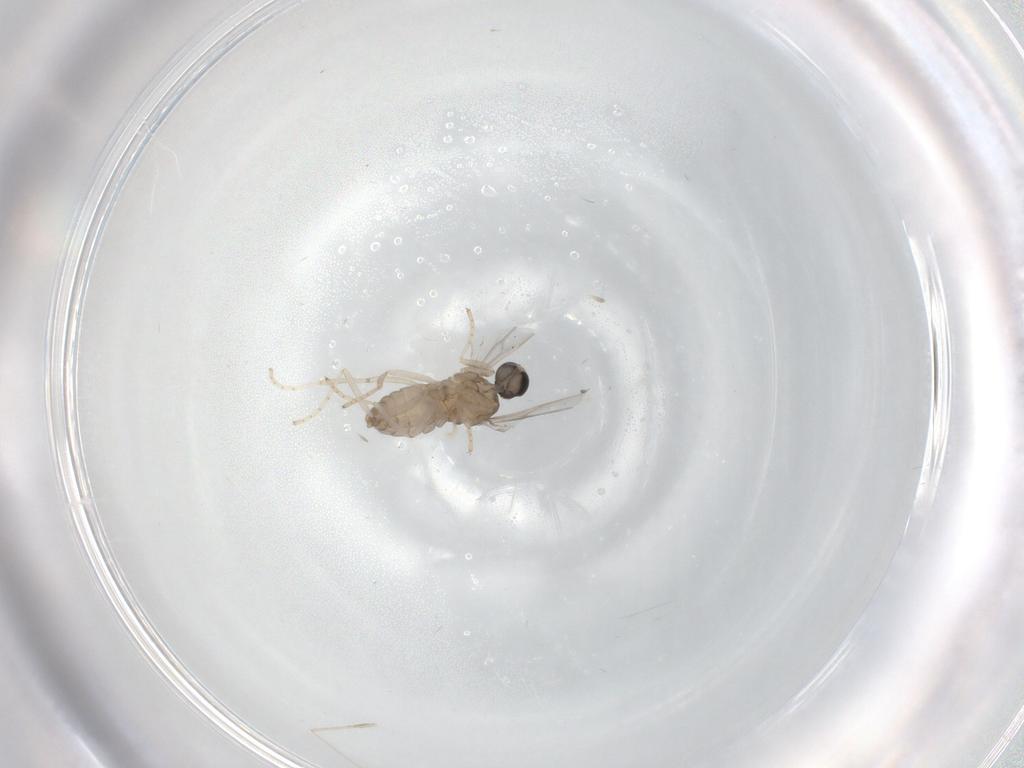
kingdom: Animalia
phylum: Arthropoda
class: Insecta
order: Diptera
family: Cecidomyiidae
